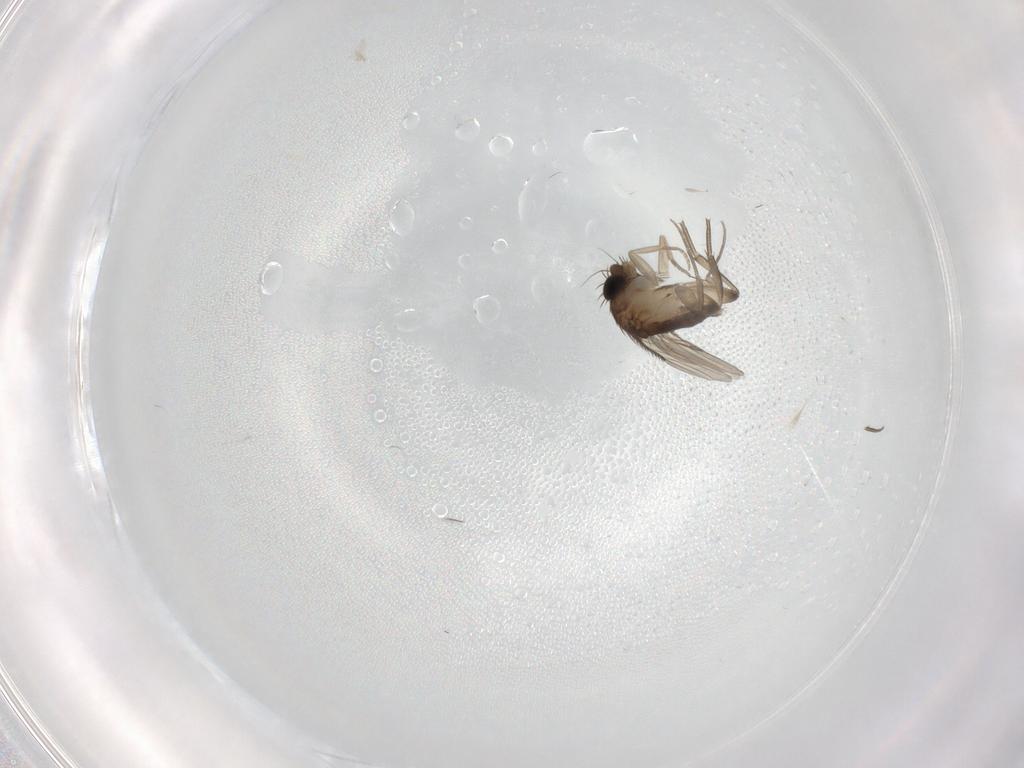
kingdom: Animalia
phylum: Arthropoda
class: Insecta
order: Diptera
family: Phoridae
